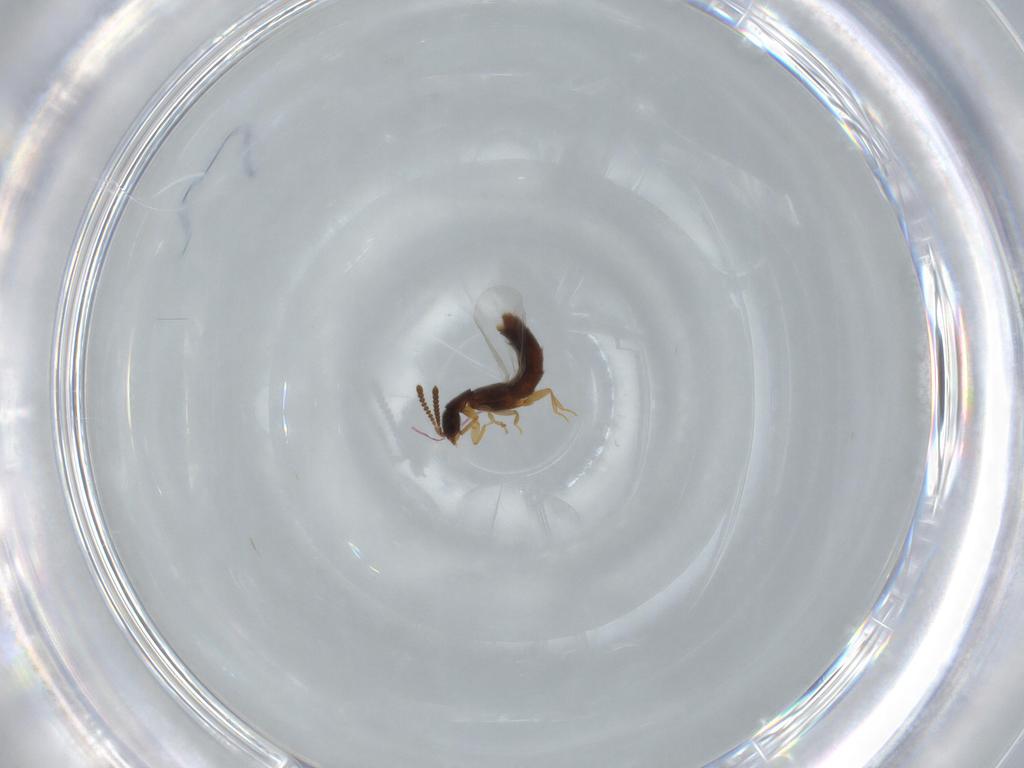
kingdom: Animalia
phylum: Arthropoda
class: Insecta
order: Coleoptera
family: Staphylinidae
